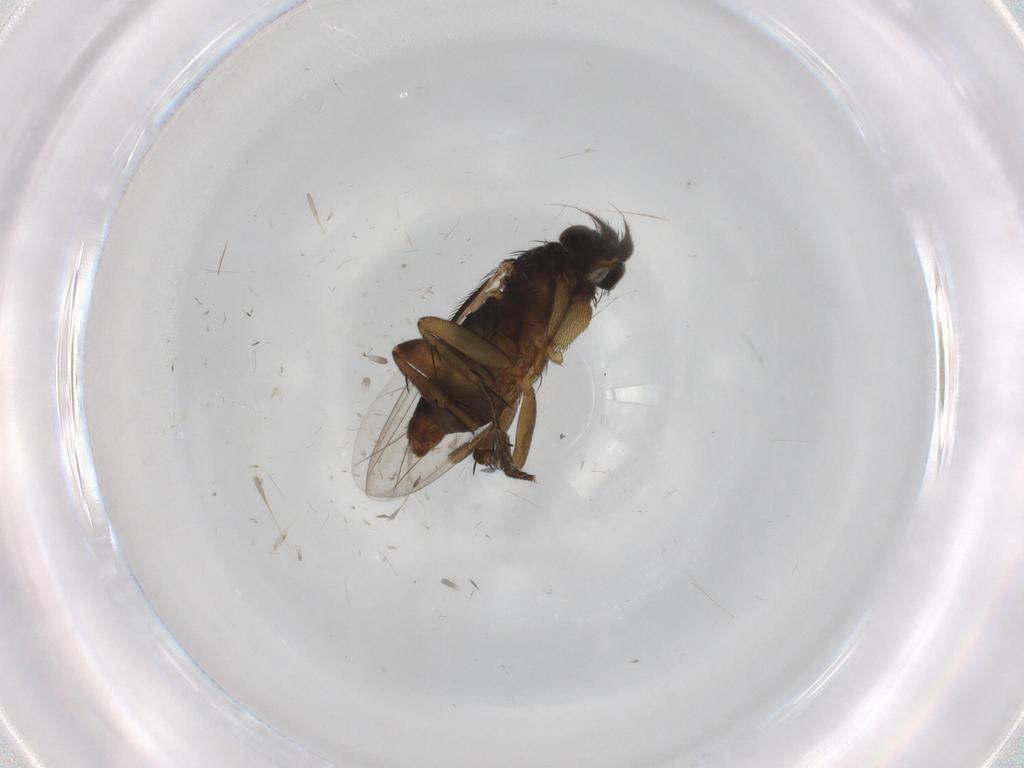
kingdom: Animalia
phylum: Arthropoda
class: Insecta
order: Diptera
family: Phoridae
